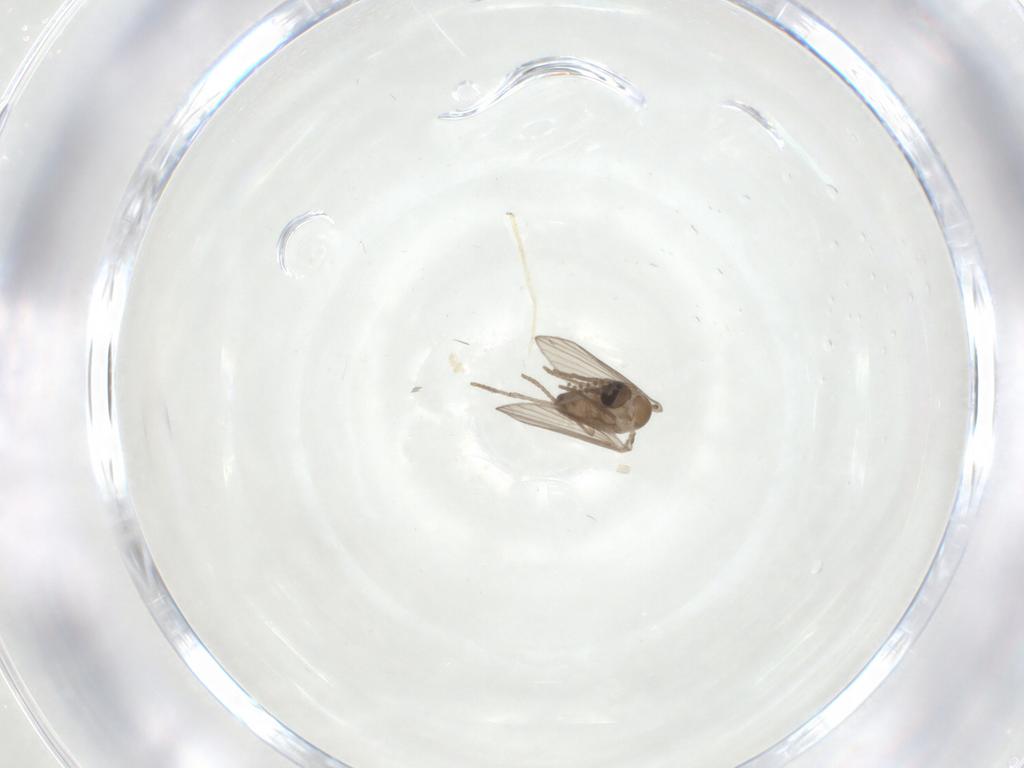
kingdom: Animalia
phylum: Arthropoda
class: Insecta
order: Diptera
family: Psychodidae
